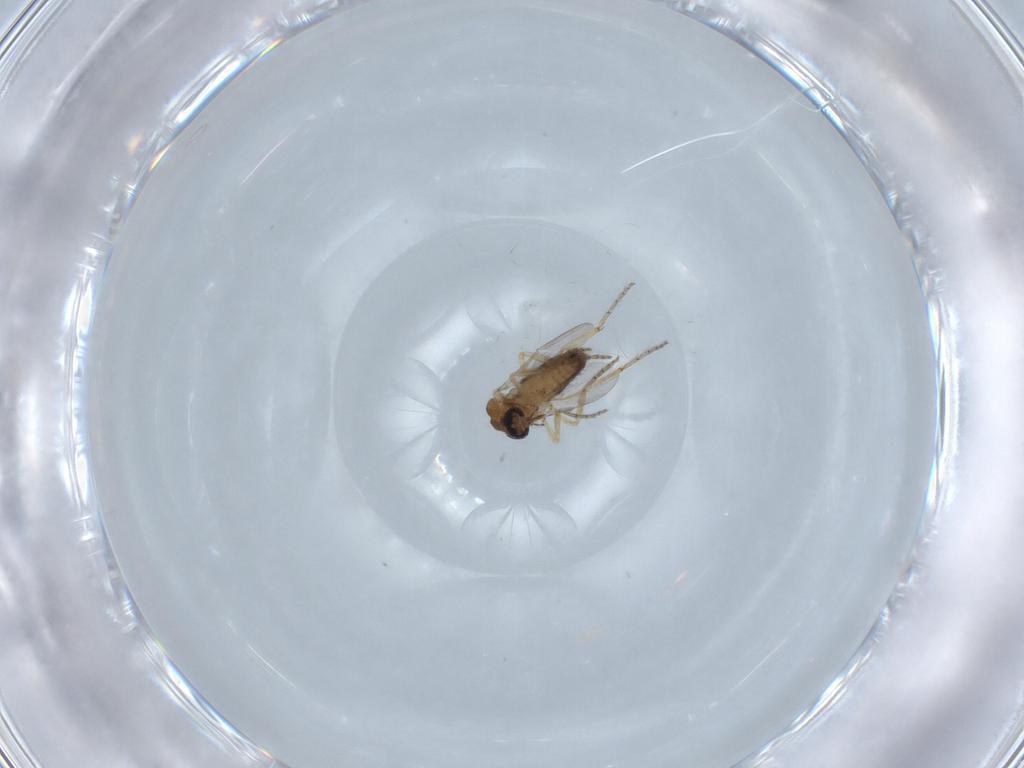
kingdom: Animalia
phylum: Arthropoda
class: Insecta
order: Diptera
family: Ceratopogonidae
